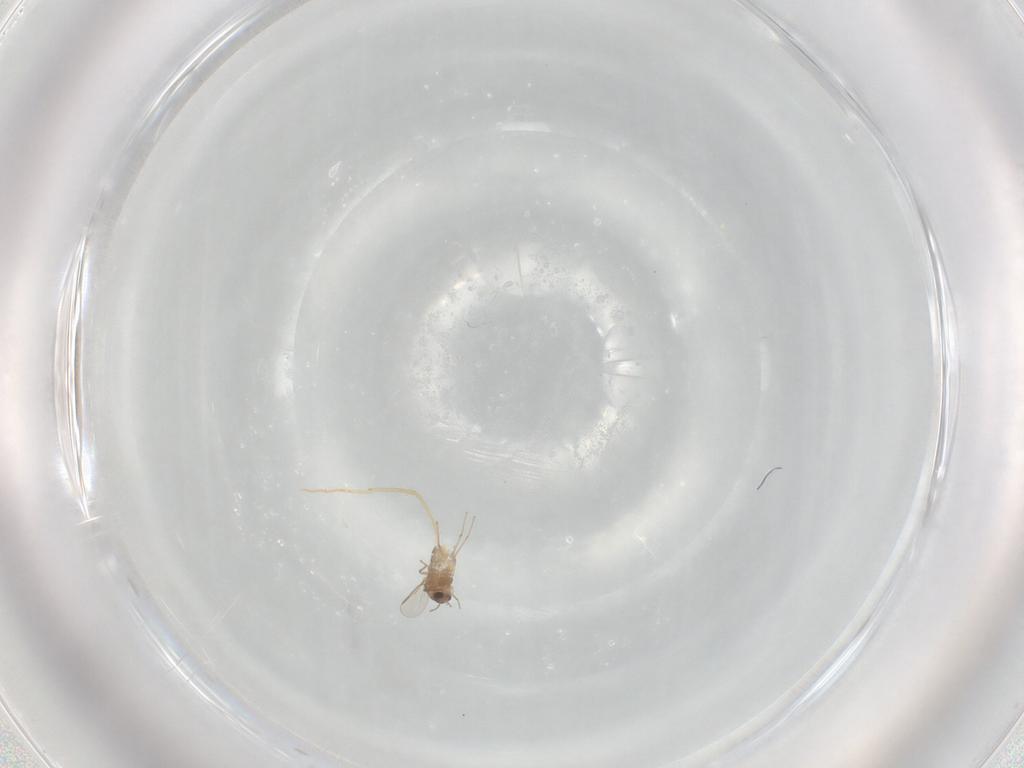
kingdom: Animalia
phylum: Arthropoda
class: Insecta
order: Diptera
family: Chironomidae
